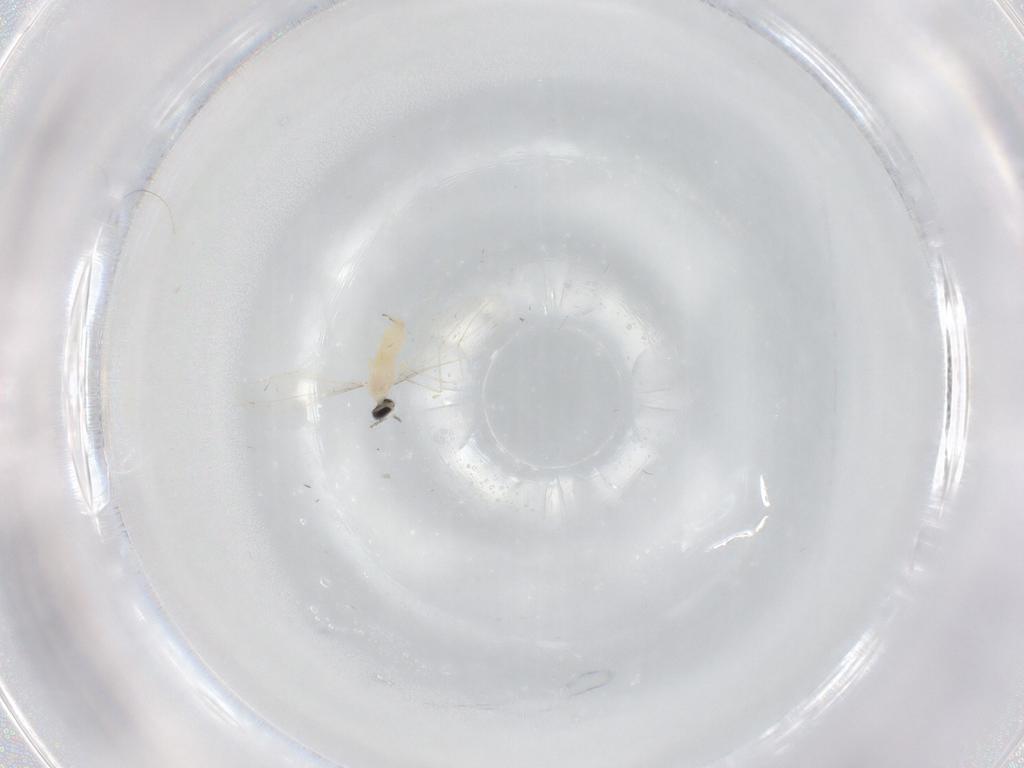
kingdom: Animalia
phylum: Arthropoda
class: Insecta
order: Diptera
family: Cecidomyiidae
